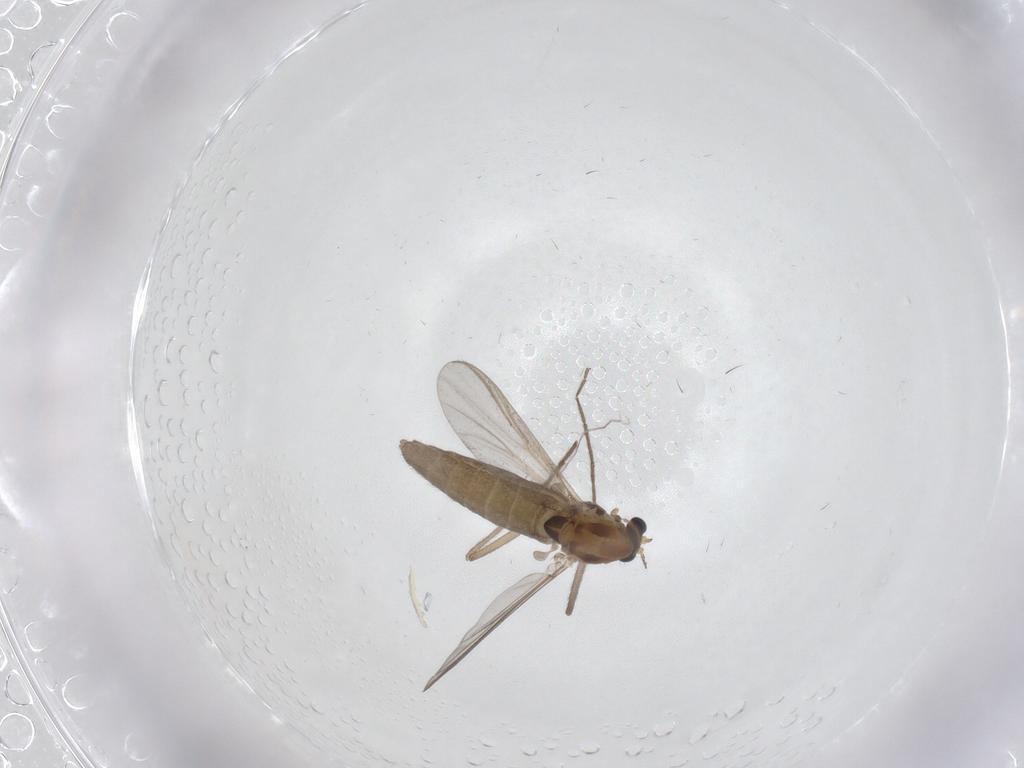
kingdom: Animalia
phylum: Arthropoda
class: Insecta
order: Diptera
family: Chironomidae
